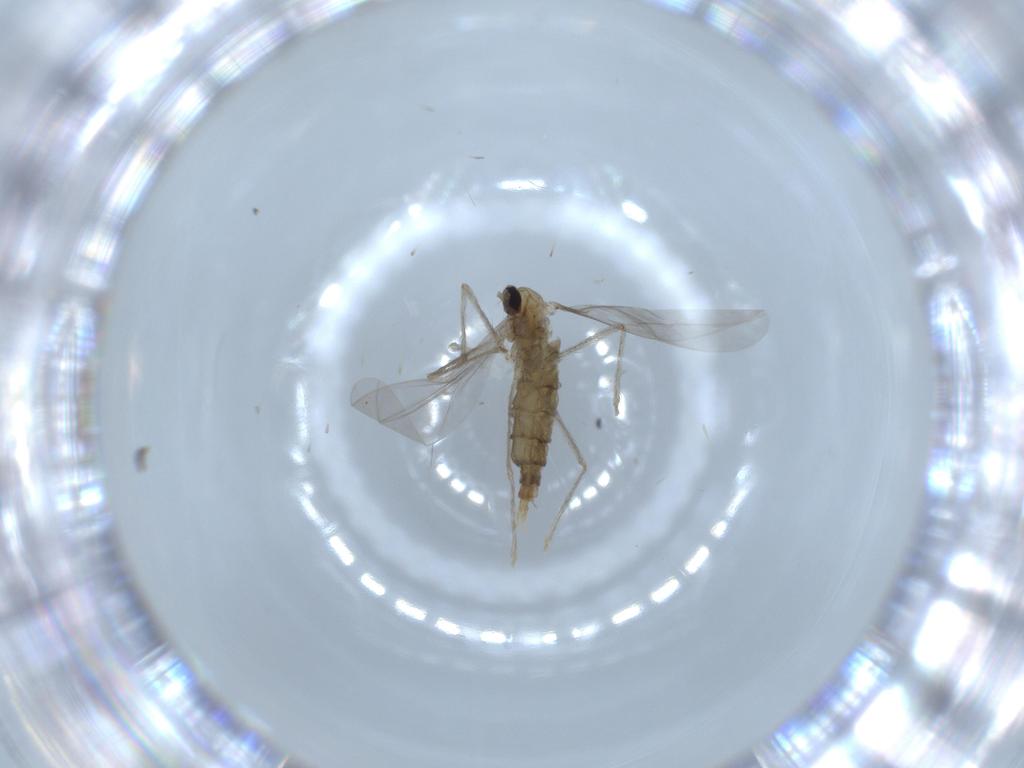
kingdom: Animalia
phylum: Arthropoda
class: Insecta
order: Diptera
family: Cecidomyiidae
